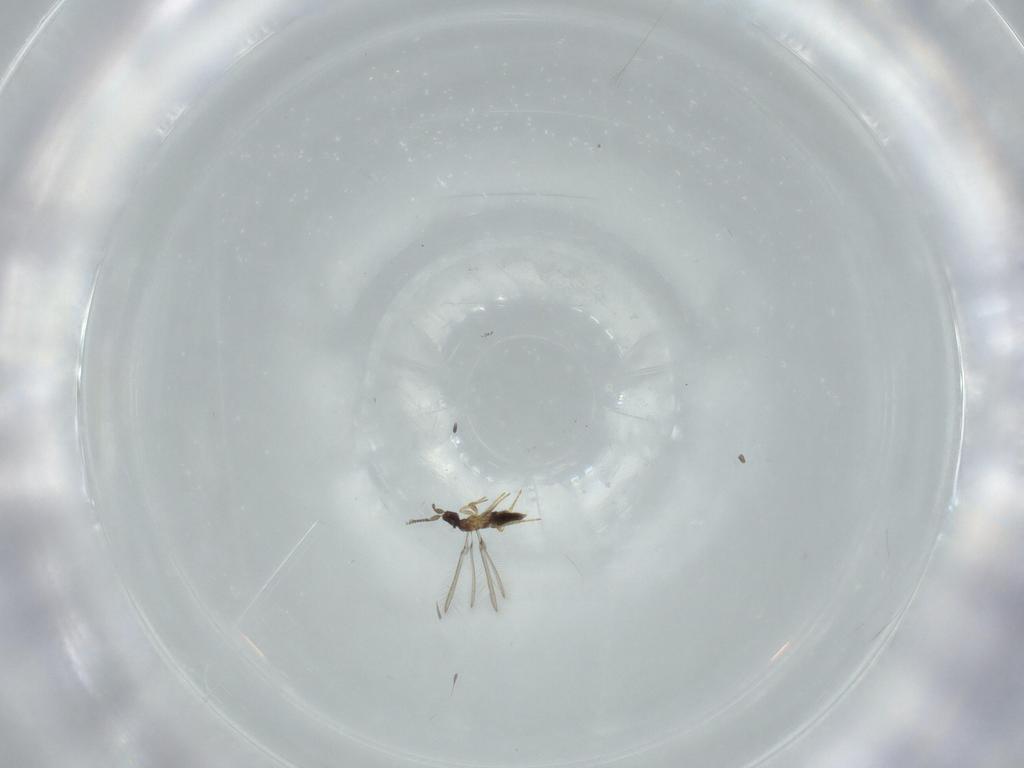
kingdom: Animalia
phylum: Arthropoda
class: Insecta
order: Hymenoptera
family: Mymaridae
